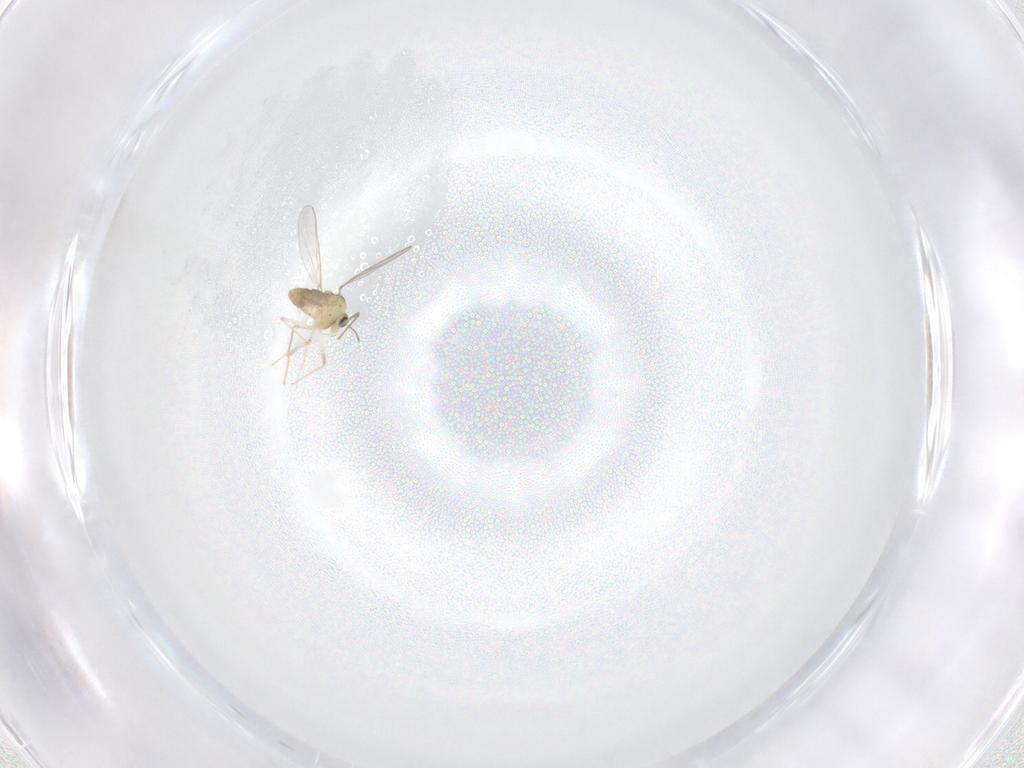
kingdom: Animalia
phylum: Arthropoda
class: Insecta
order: Diptera
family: Chironomidae
